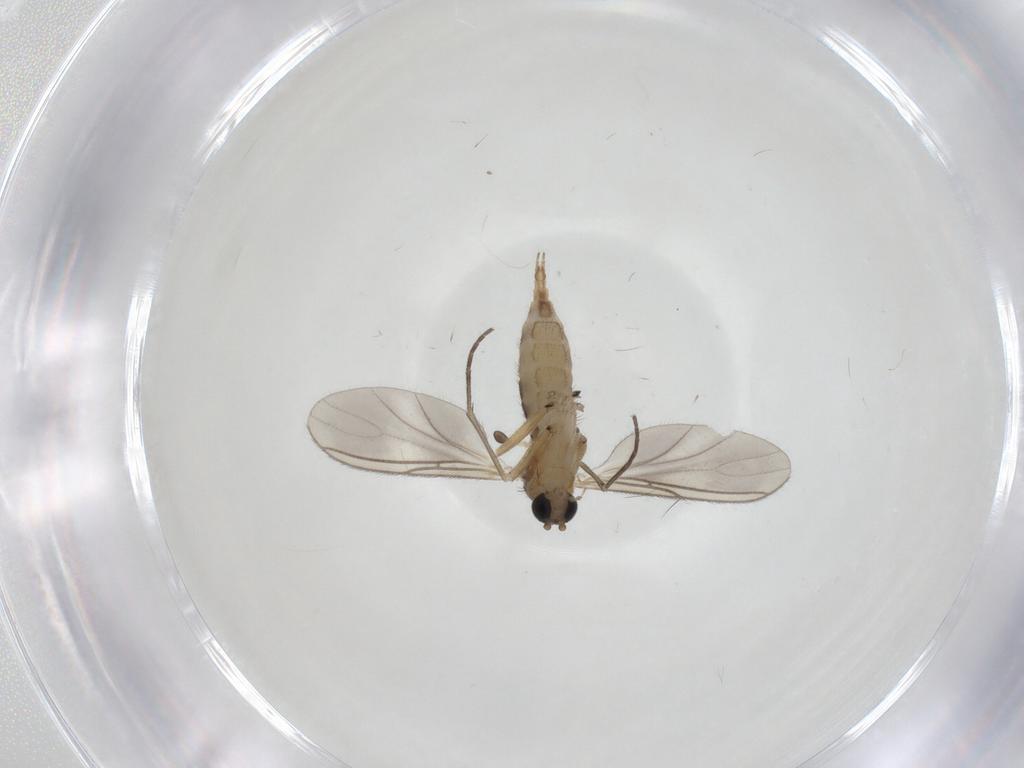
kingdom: Animalia
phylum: Arthropoda
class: Insecta
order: Diptera
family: Sciaridae
